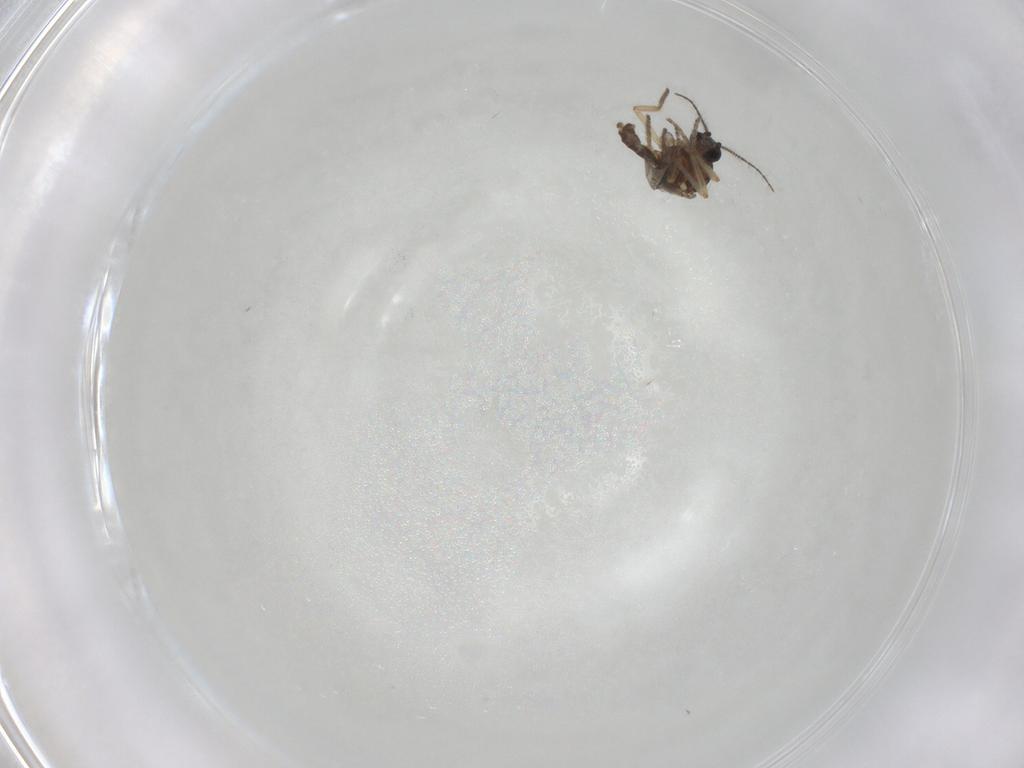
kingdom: Animalia
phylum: Arthropoda
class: Insecta
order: Diptera
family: Ceratopogonidae
